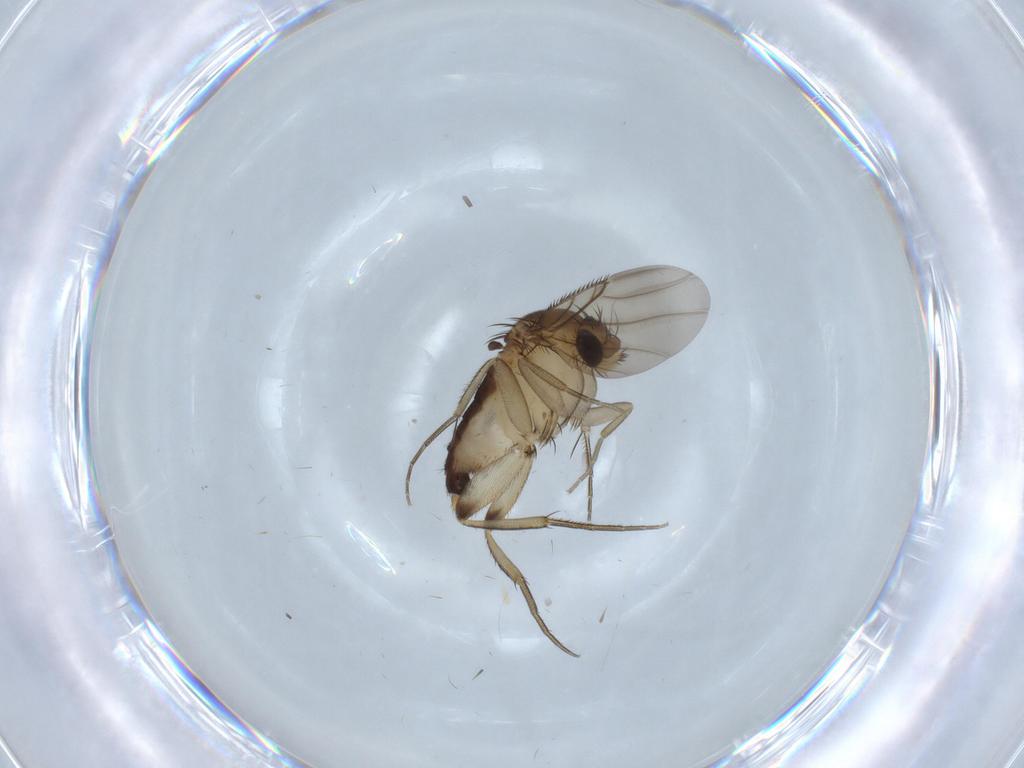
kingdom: Animalia
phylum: Arthropoda
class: Insecta
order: Diptera
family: Phoridae
